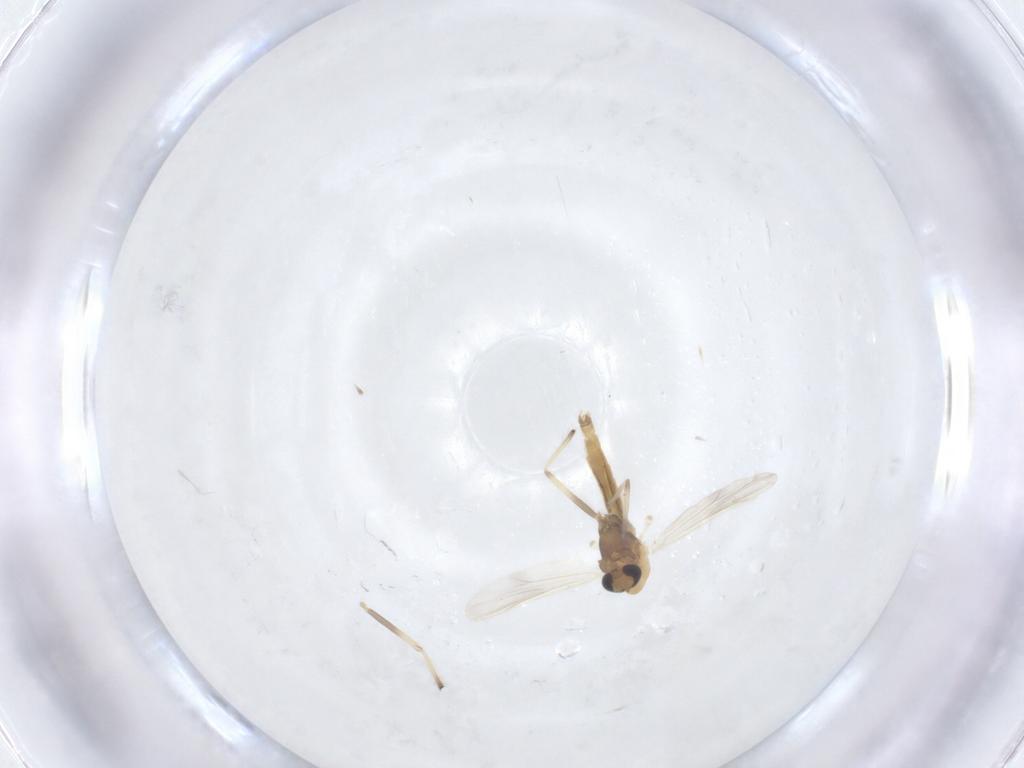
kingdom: Animalia
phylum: Arthropoda
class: Insecta
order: Diptera
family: Chironomidae
